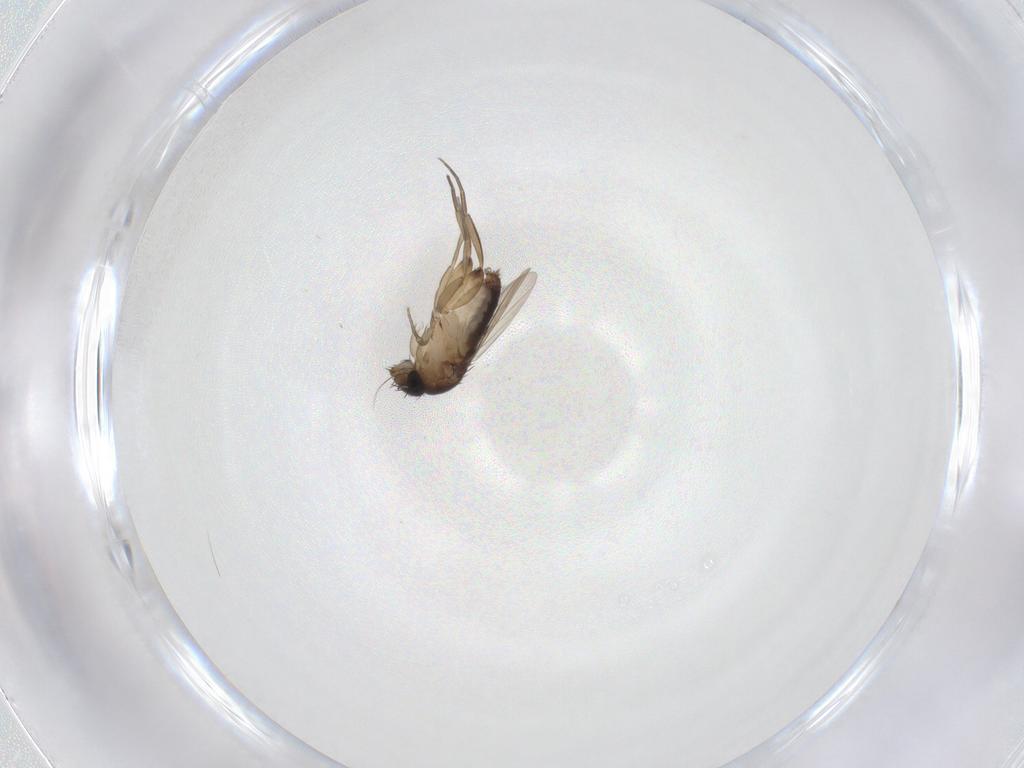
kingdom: Animalia
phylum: Arthropoda
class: Insecta
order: Diptera
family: Phoridae
